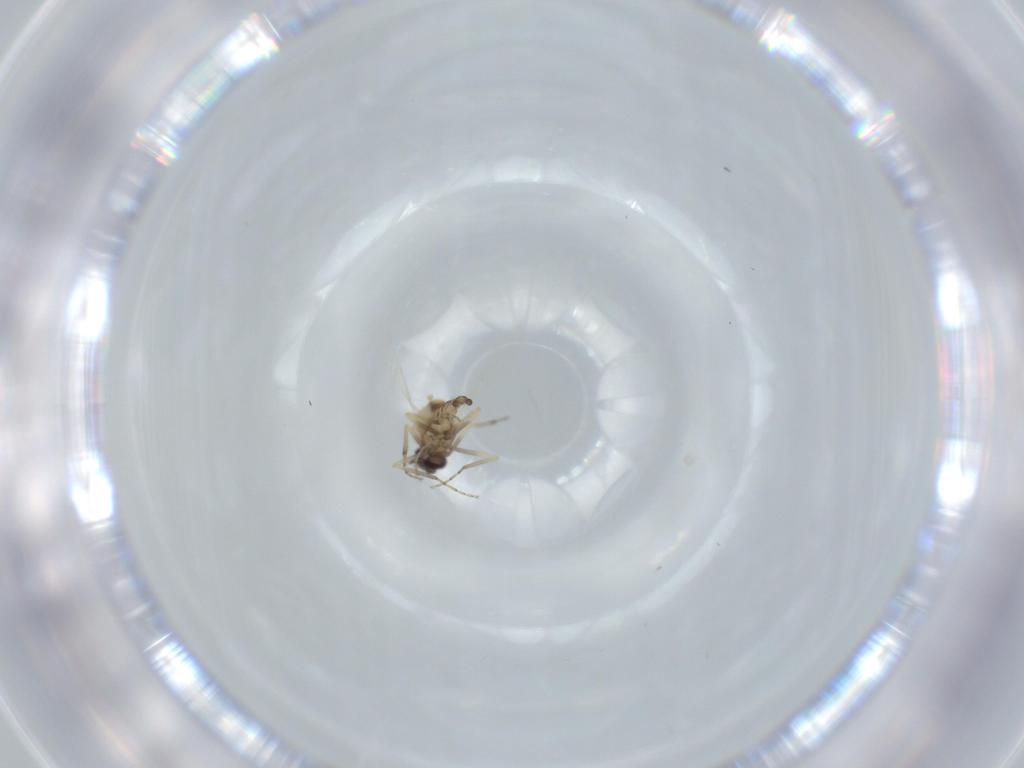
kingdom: Animalia
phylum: Arthropoda
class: Insecta
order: Diptera
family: Ceratopogonidae
